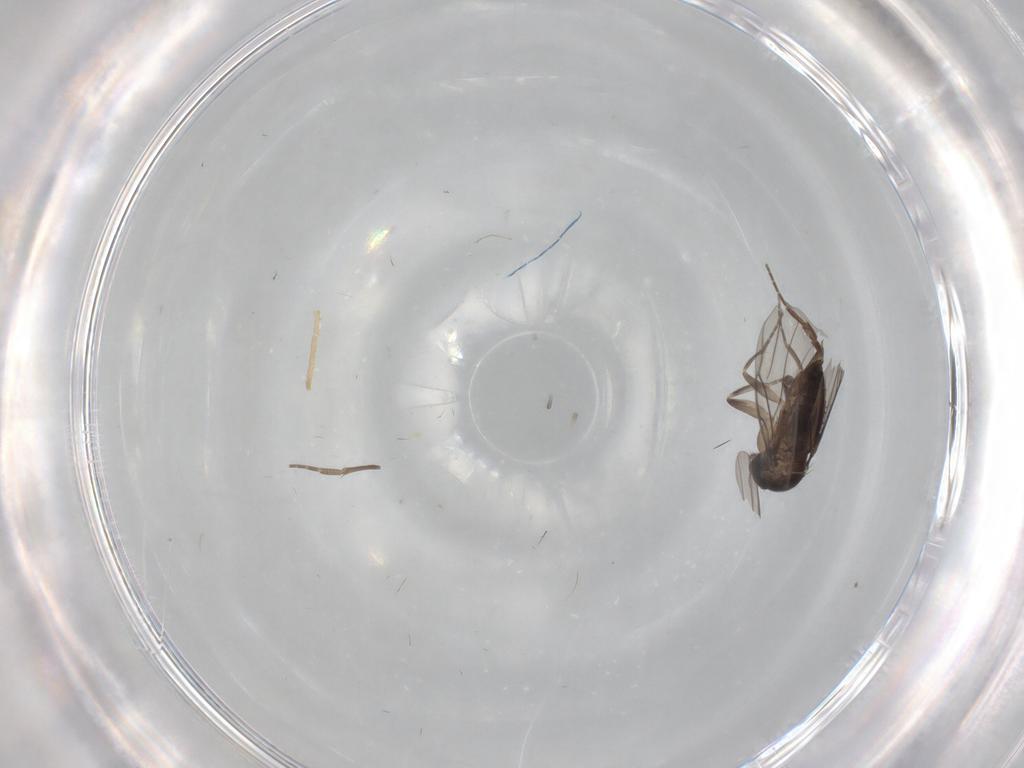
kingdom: Animalia
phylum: Arthropoda
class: Insecta
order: Diptera
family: Phoridae
